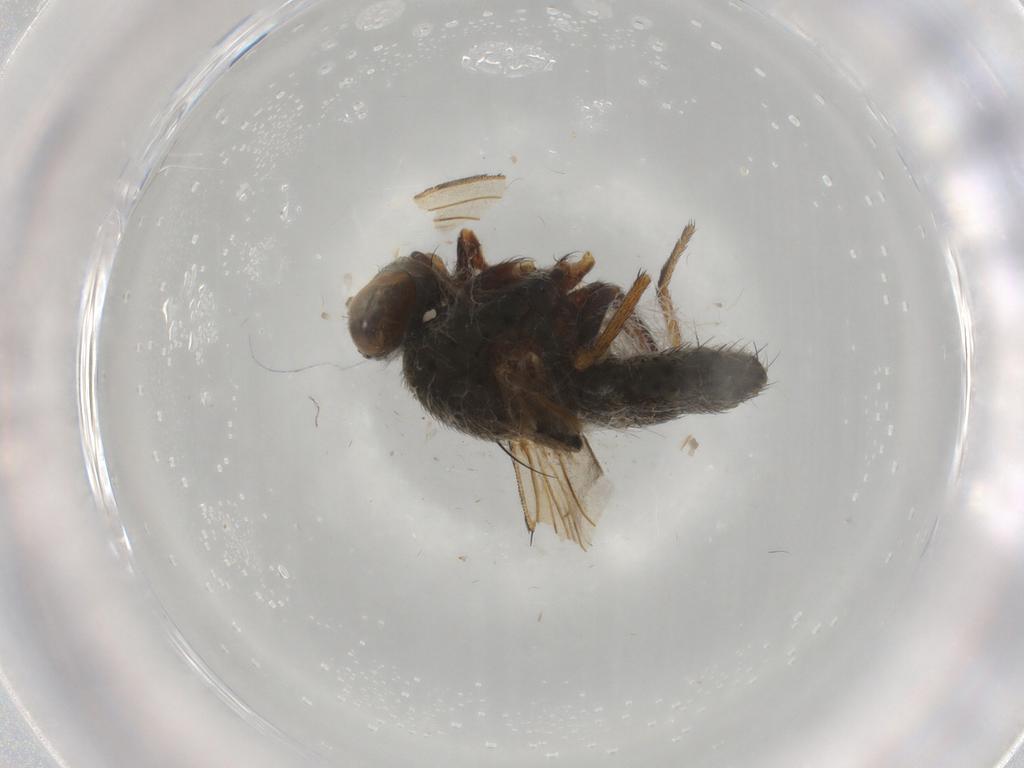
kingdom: Animalia
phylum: Arthropoda
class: Insecta
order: Diptera
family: Ephydridae
